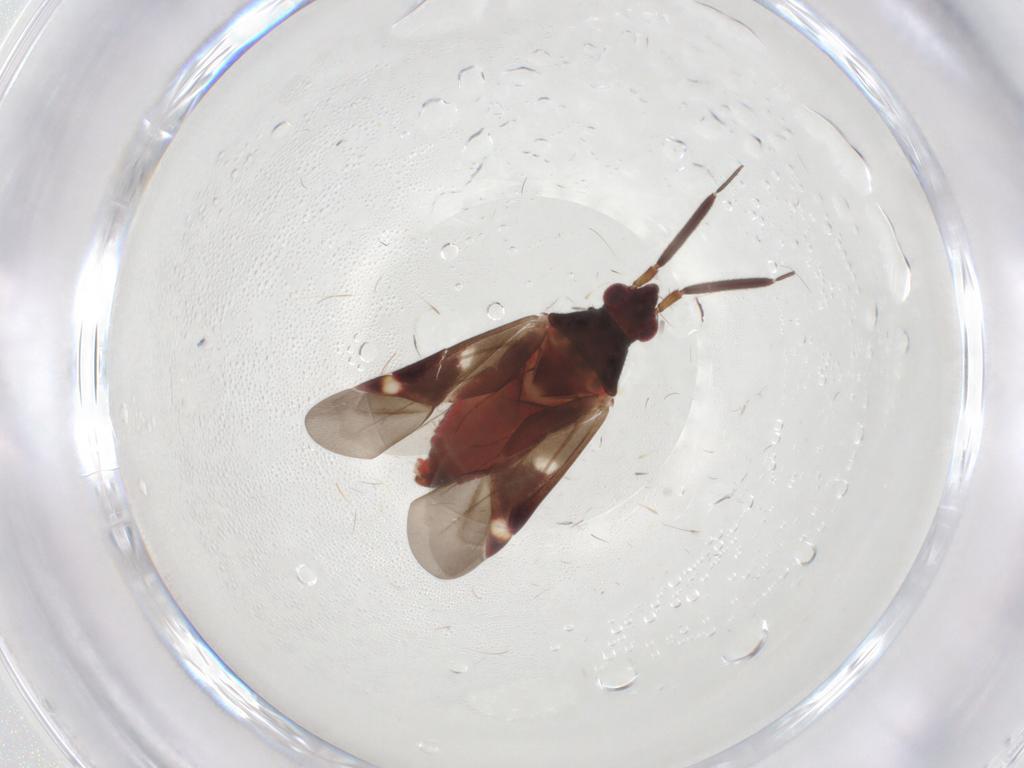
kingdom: Animalia
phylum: Arthropoda
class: Insecta
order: Hemiptera
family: Miridae
